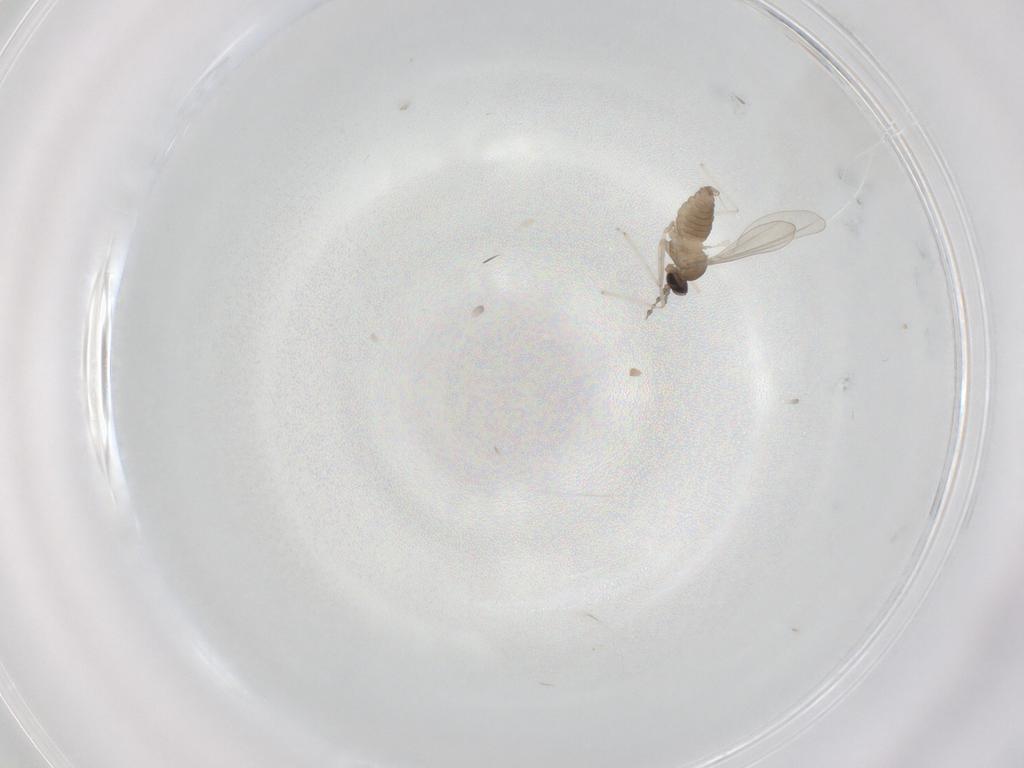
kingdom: Animalia
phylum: Arthropoda
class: Insecta
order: Diptera
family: Cecidomyiidae
